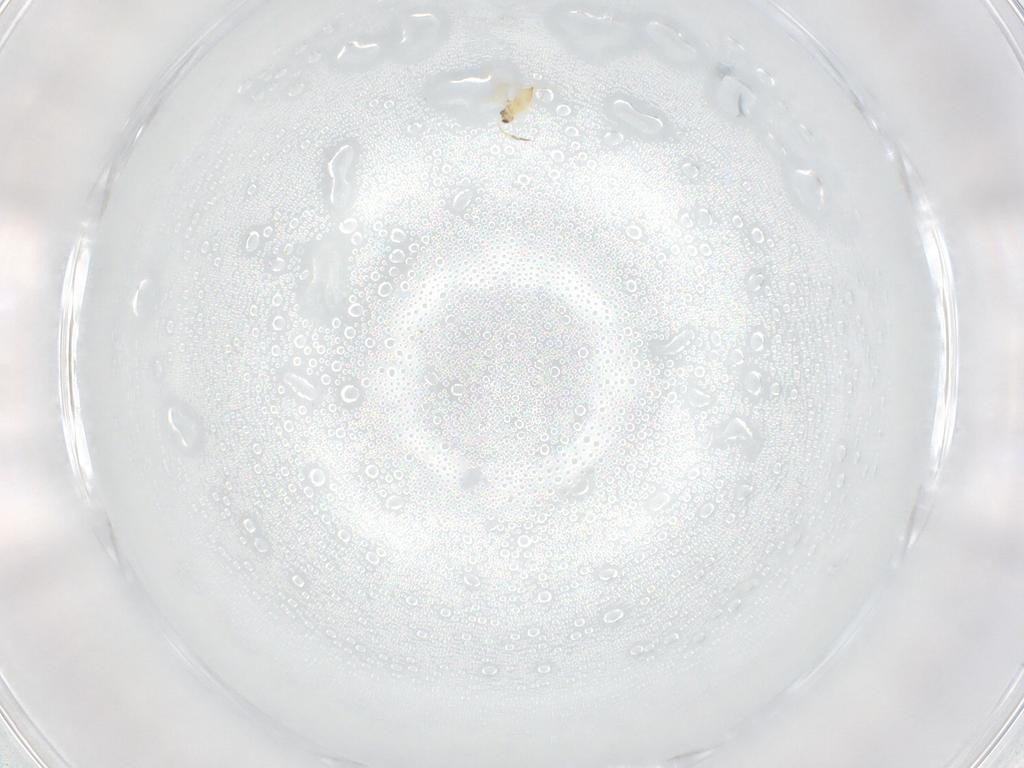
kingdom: Animalia
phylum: Arthropoda
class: Insecta
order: Hymenoptera
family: Mymaridae
